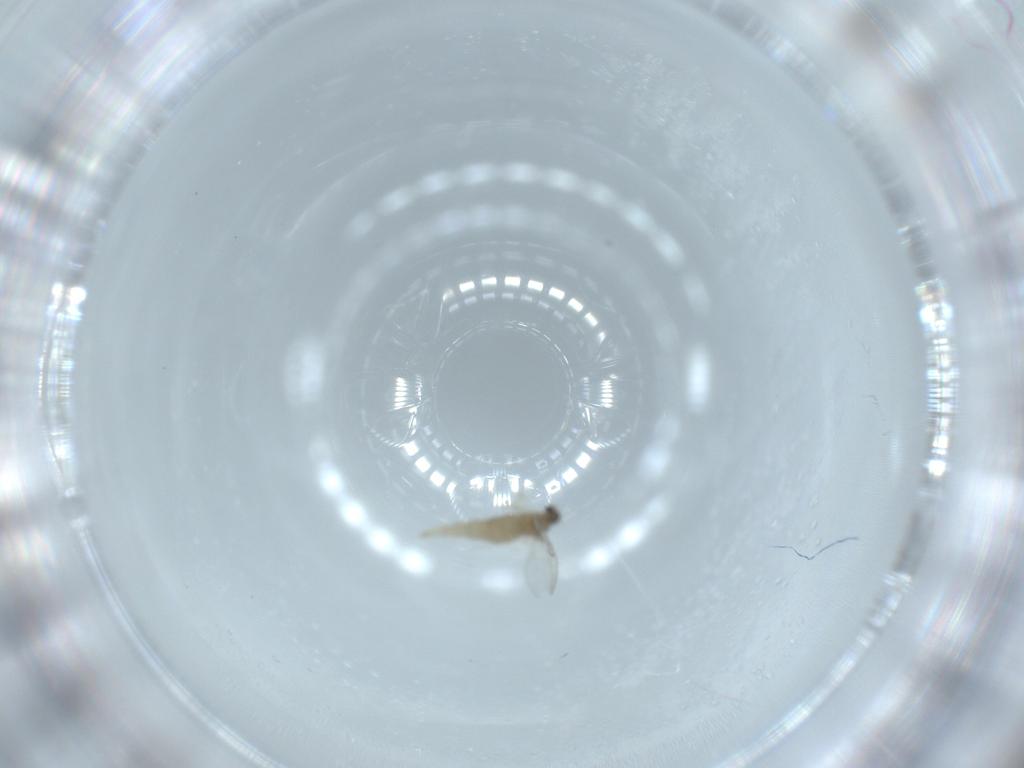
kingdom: Animalia
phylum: Arthropoda
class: Insecta
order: Diptera
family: Cecidomyiidae
